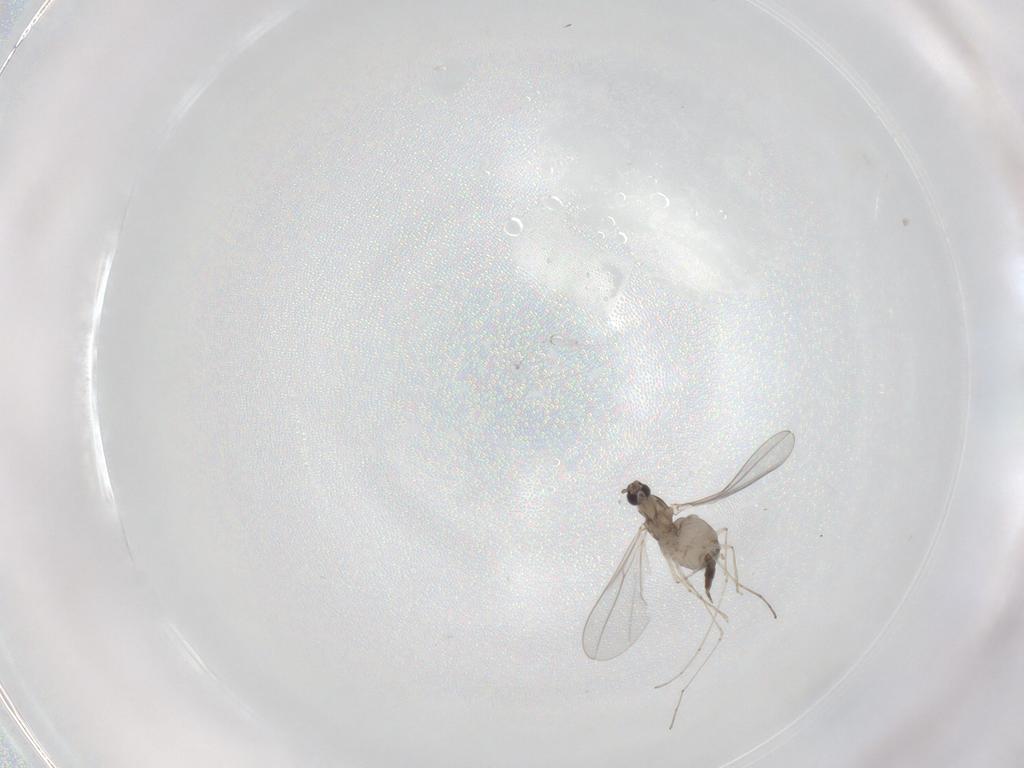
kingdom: Animalia
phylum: Arthropoda
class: Insecta
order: Diptera
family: Cecidomyiidae
